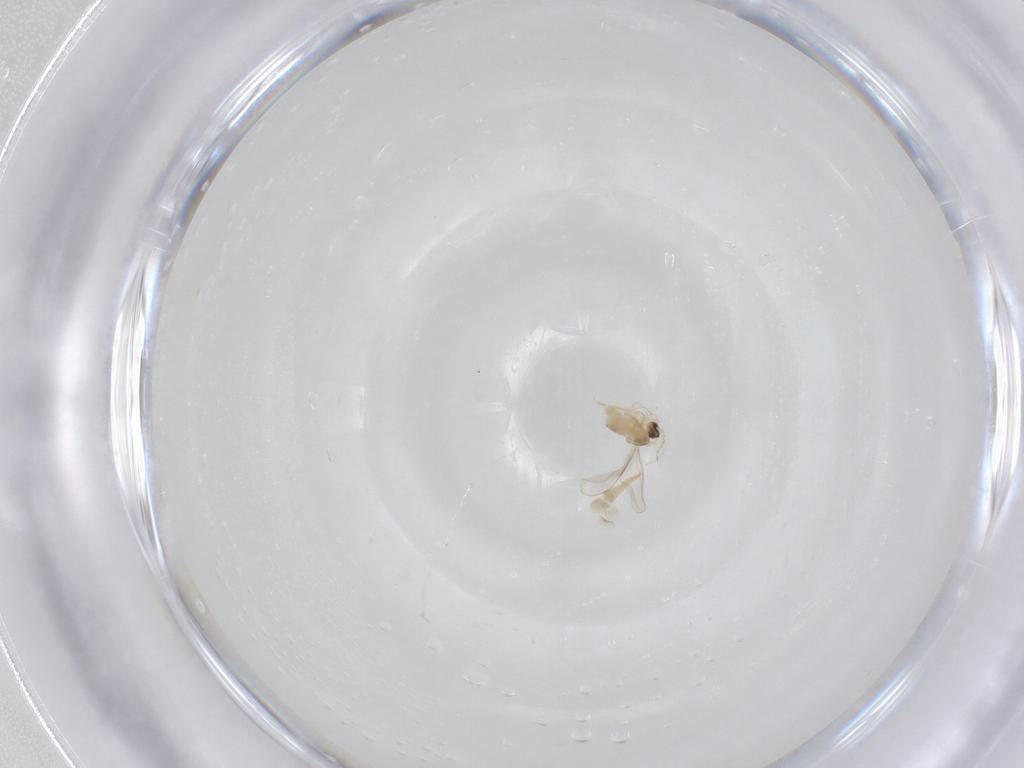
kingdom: Animalia
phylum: Arthropoda
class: Insecta
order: Diptera
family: Cecidomyiidae
